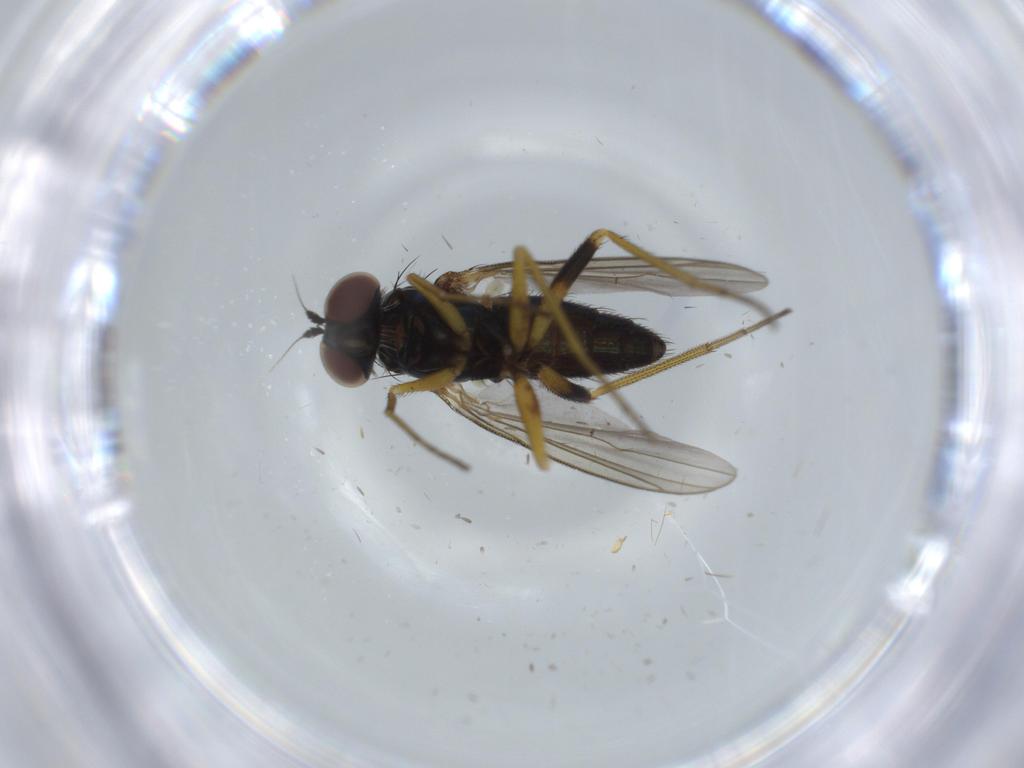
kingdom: Animalia
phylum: Arthropoda
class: Insecta
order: Diptera
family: Dolichopodidae
